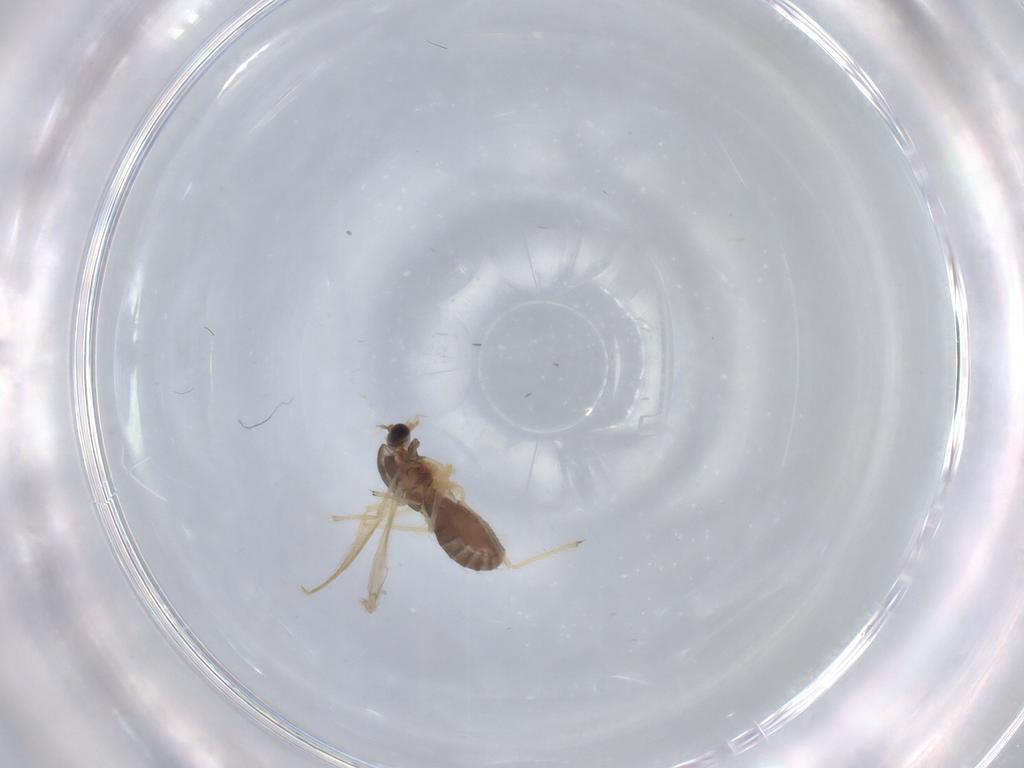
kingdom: Animalia
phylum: Arthropoda
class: Insecta
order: Diptera
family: Chironomidae
